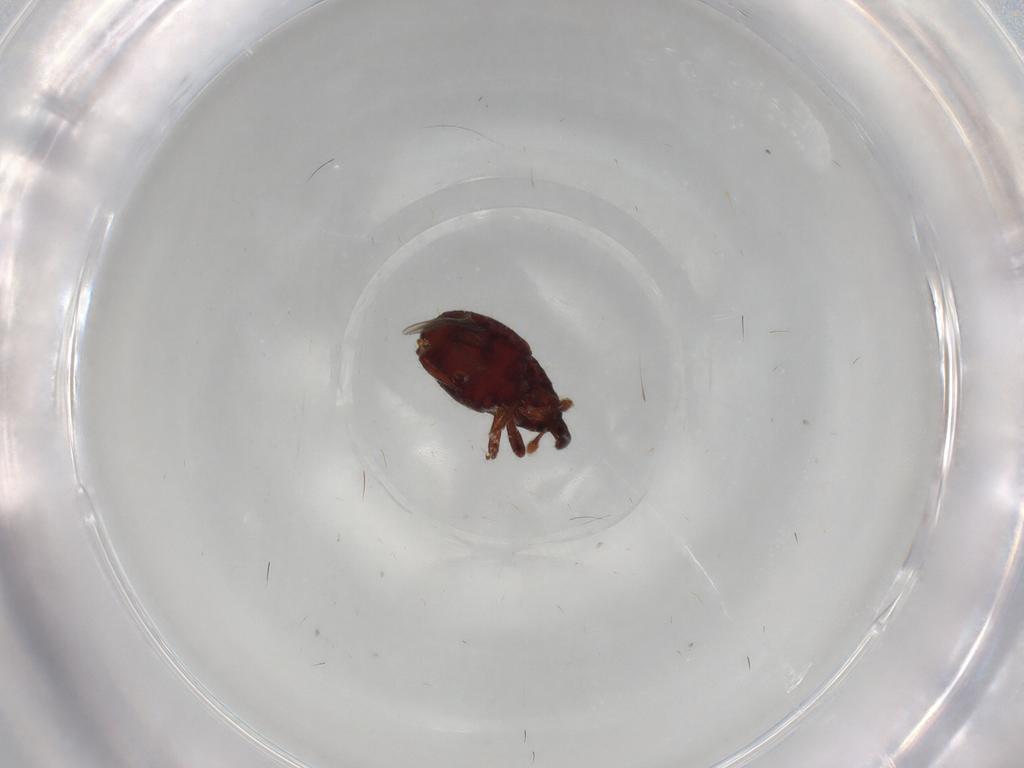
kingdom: Animalia
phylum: Arthropoda
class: Insecta
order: Coleoptera
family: Chrysomelidae
